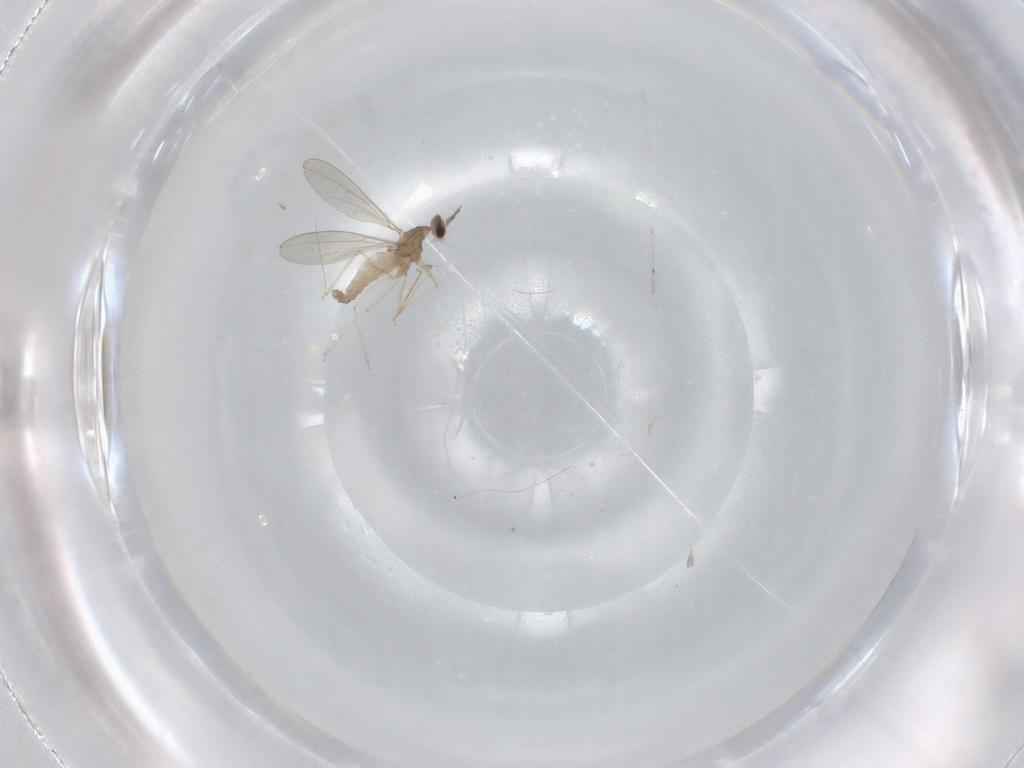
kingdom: Animalia
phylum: Arthropoda
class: Insecta
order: Diptera
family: Cecidomyiidae
